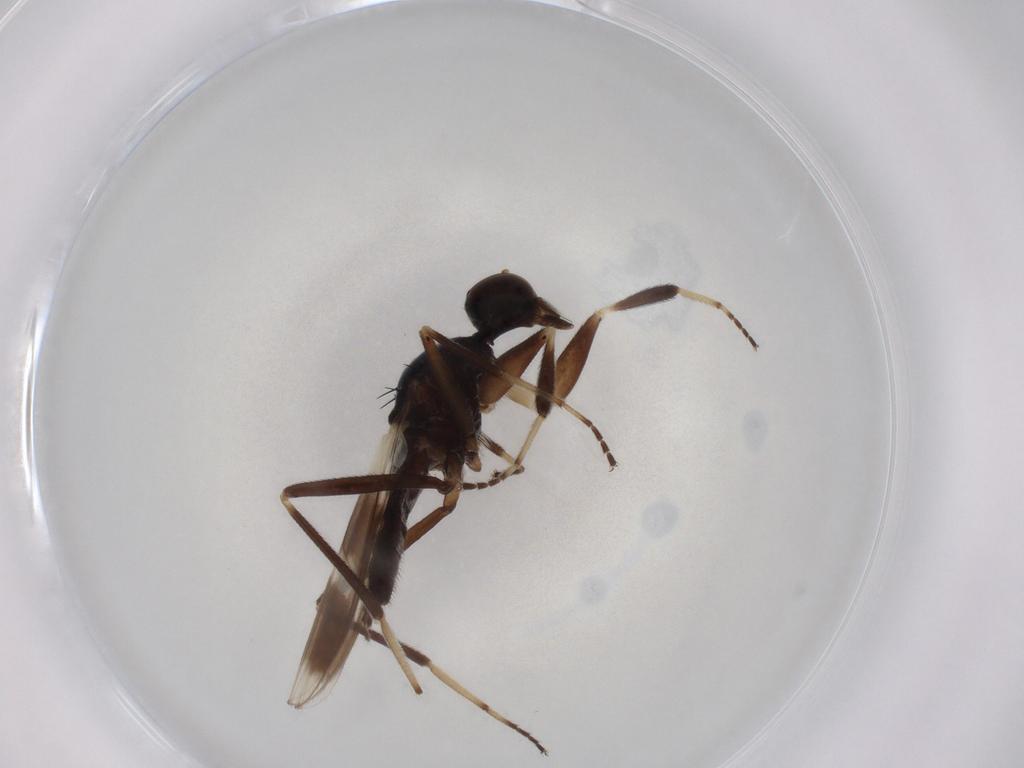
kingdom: Animalia
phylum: Arthropoda
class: Insecta
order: Diptera
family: Hybotidae
